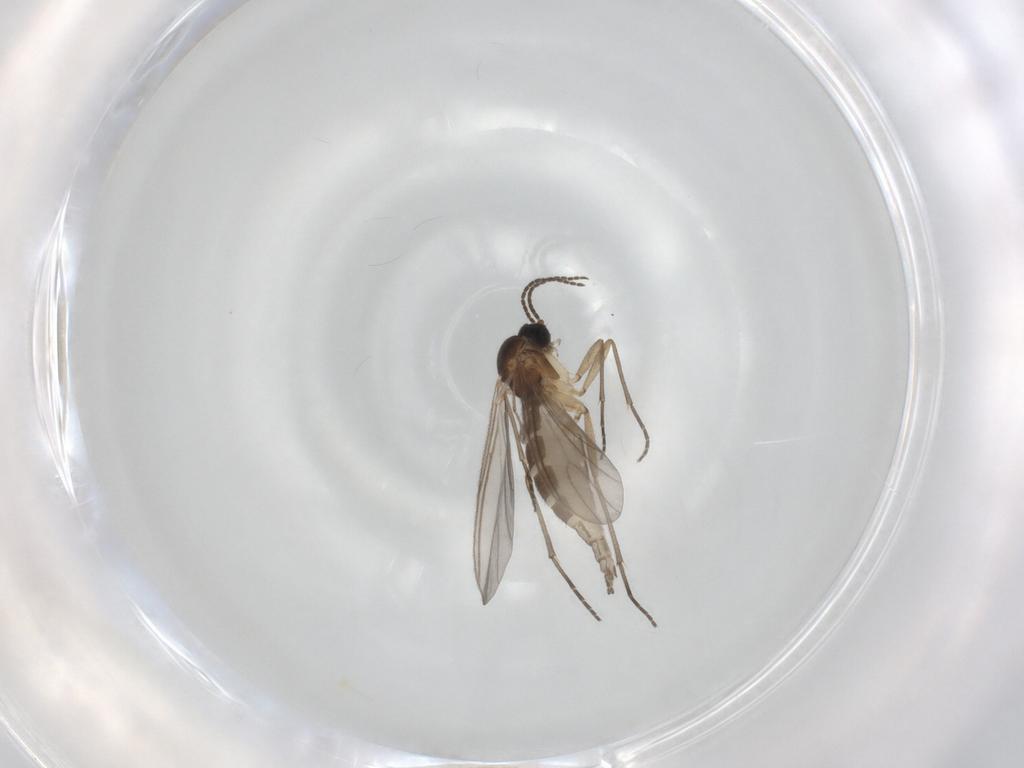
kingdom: Animalia
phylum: Arthropoda
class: Insecta
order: Diptera
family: Sciaridae
